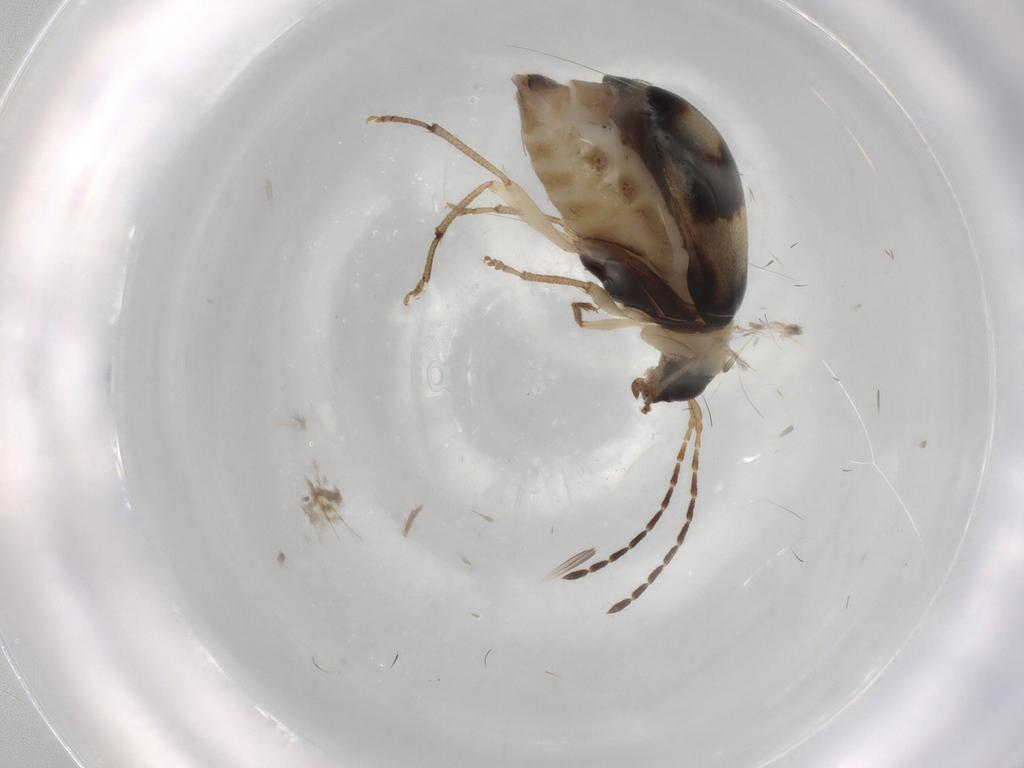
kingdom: Animalia
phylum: Arthropoda
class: Insecta
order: Coleoptera
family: Chrysomelidae
